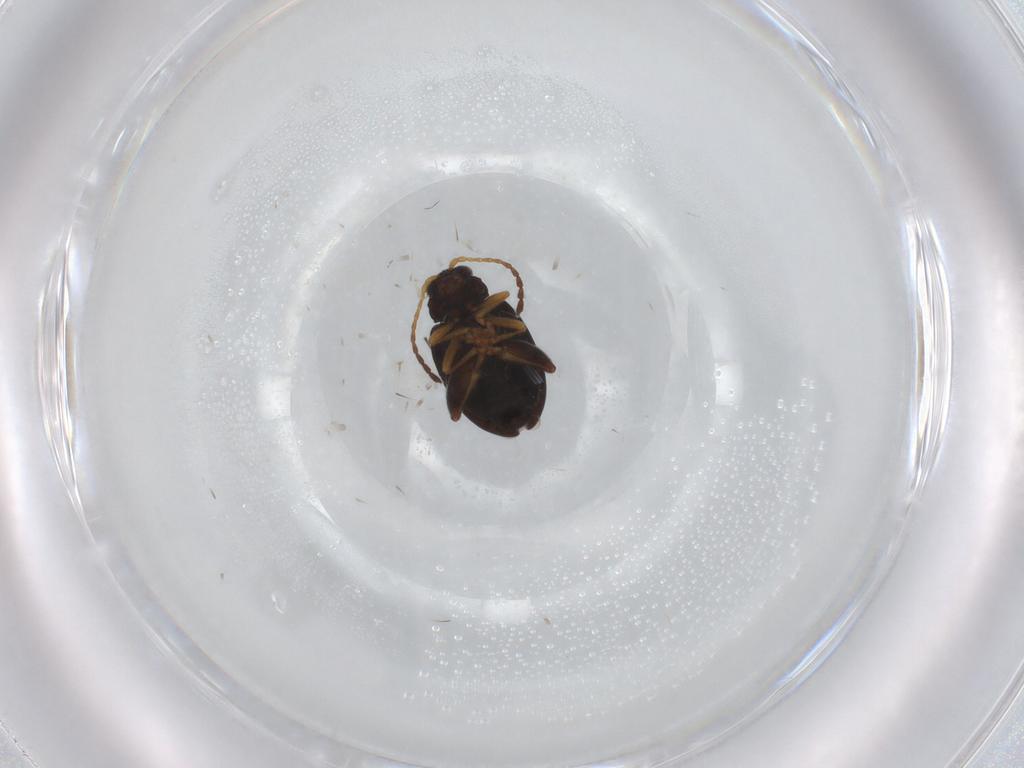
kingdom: Animalia
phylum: Arthropoda
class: Insecta
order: Coleoptera
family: Chrysomelidae
